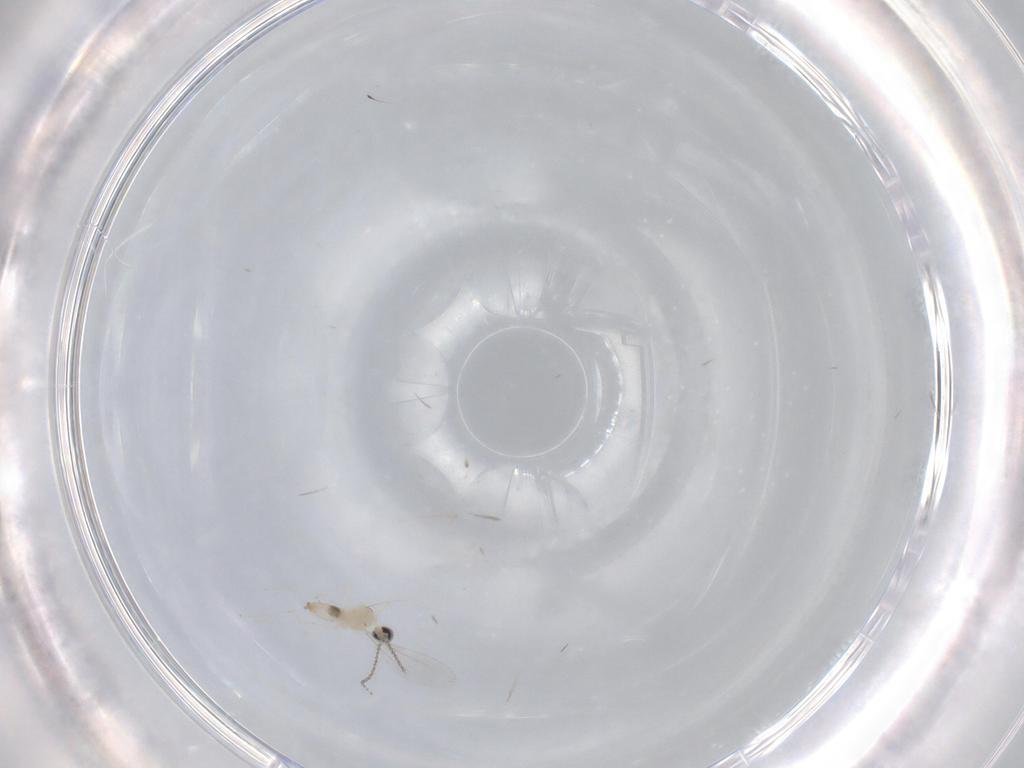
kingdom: Animalia
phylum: Arthropoda
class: Insecta
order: Diptera
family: Cecidomyiidae
